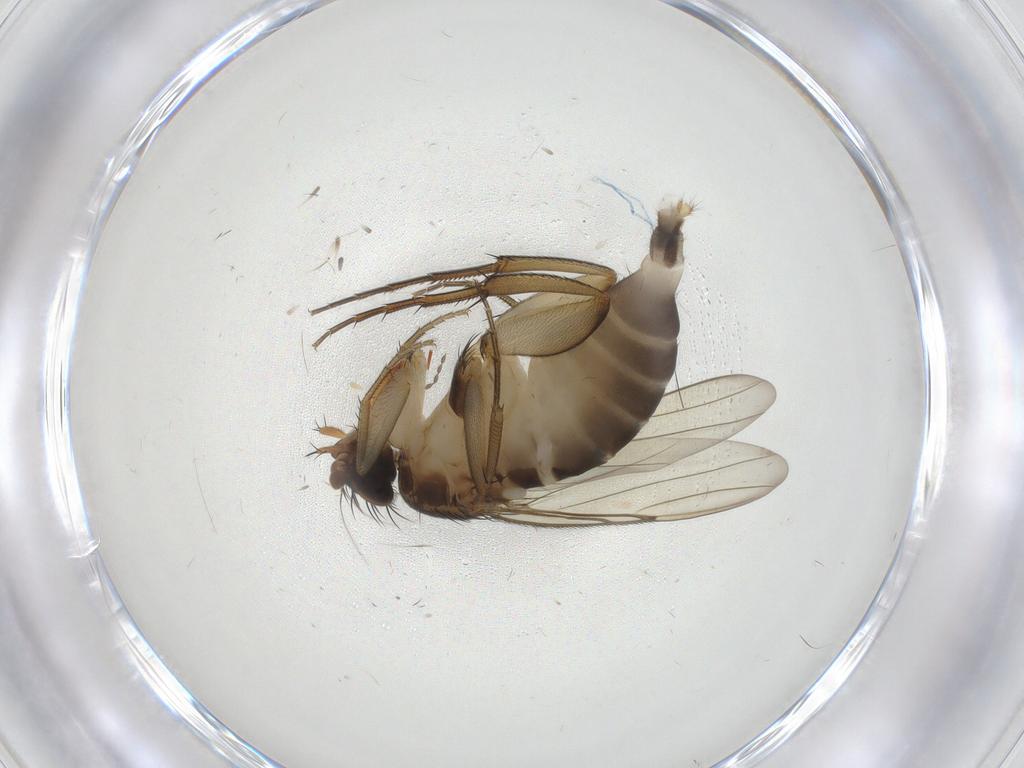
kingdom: Animalia
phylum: Arthropoda
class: Insecta
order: Diptera
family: Phoridae
